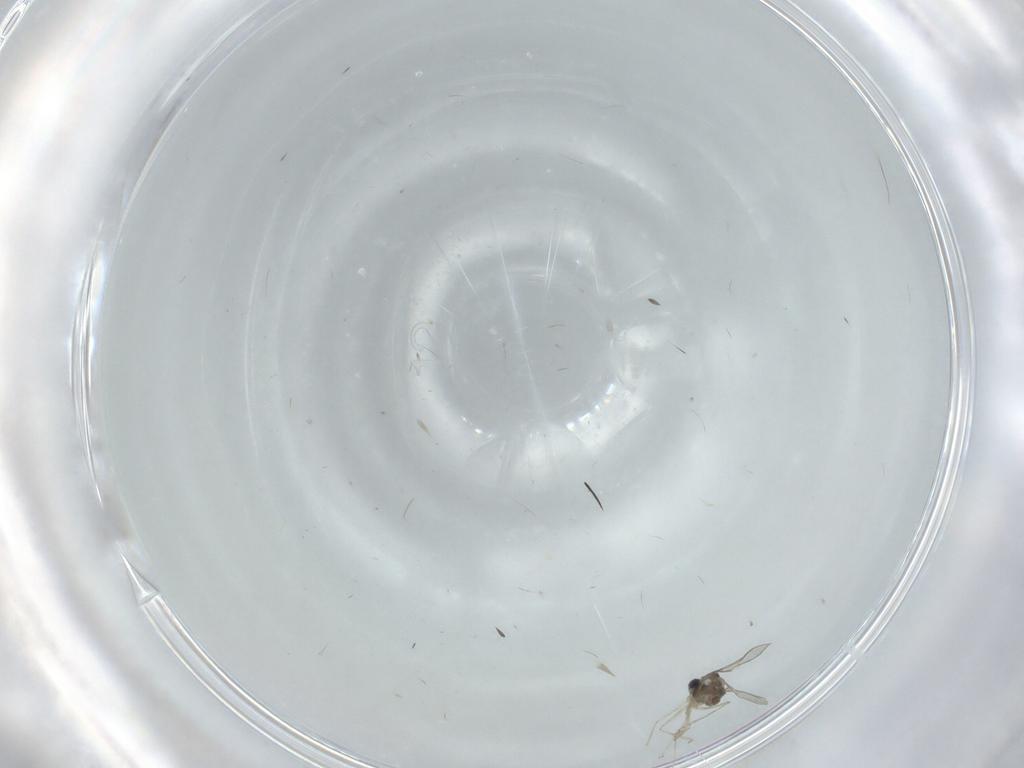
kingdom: Animalia
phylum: Arthropoda
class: Insecta
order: Diptera
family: Cecidomyiidae
